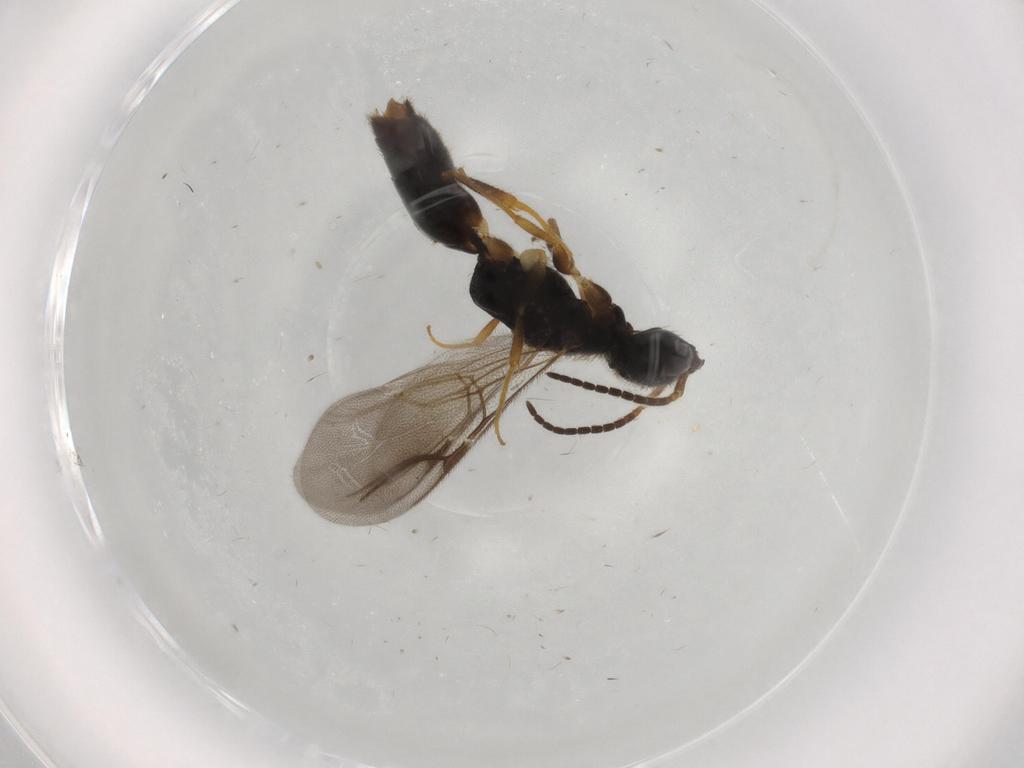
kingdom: Animalia
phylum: Arthropoda
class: Insecta
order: Hymenoptera
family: Bethylidae
